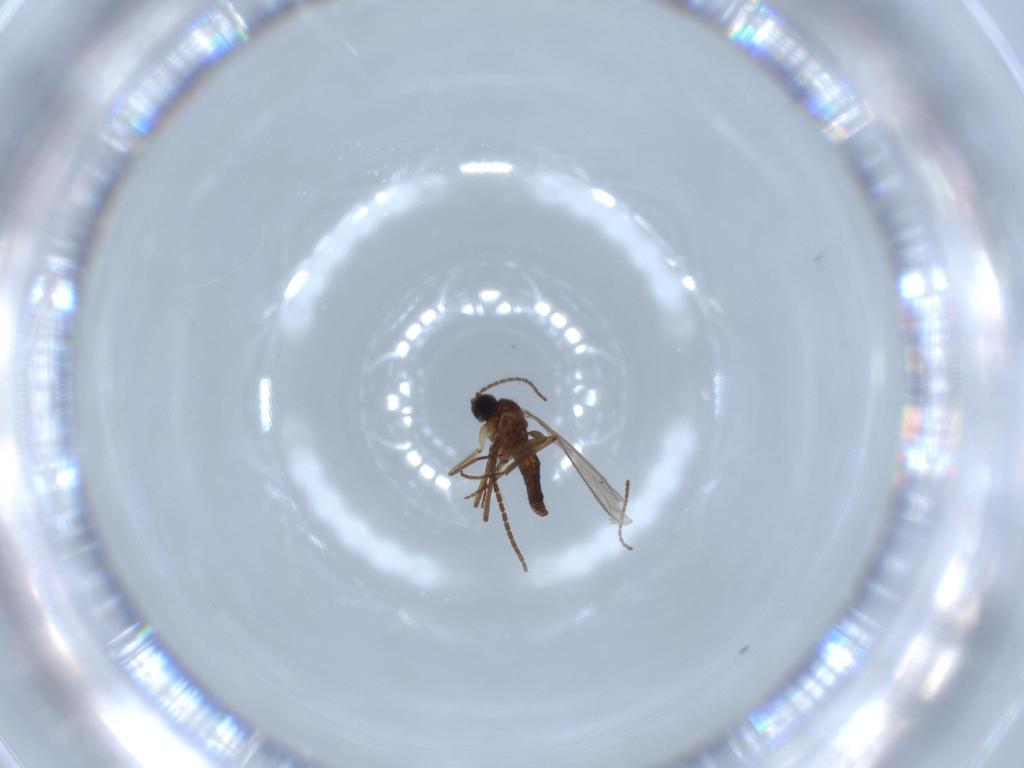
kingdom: Animalia
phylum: Arthropoda
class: Insecta
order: Diptera
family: Sciaridae
